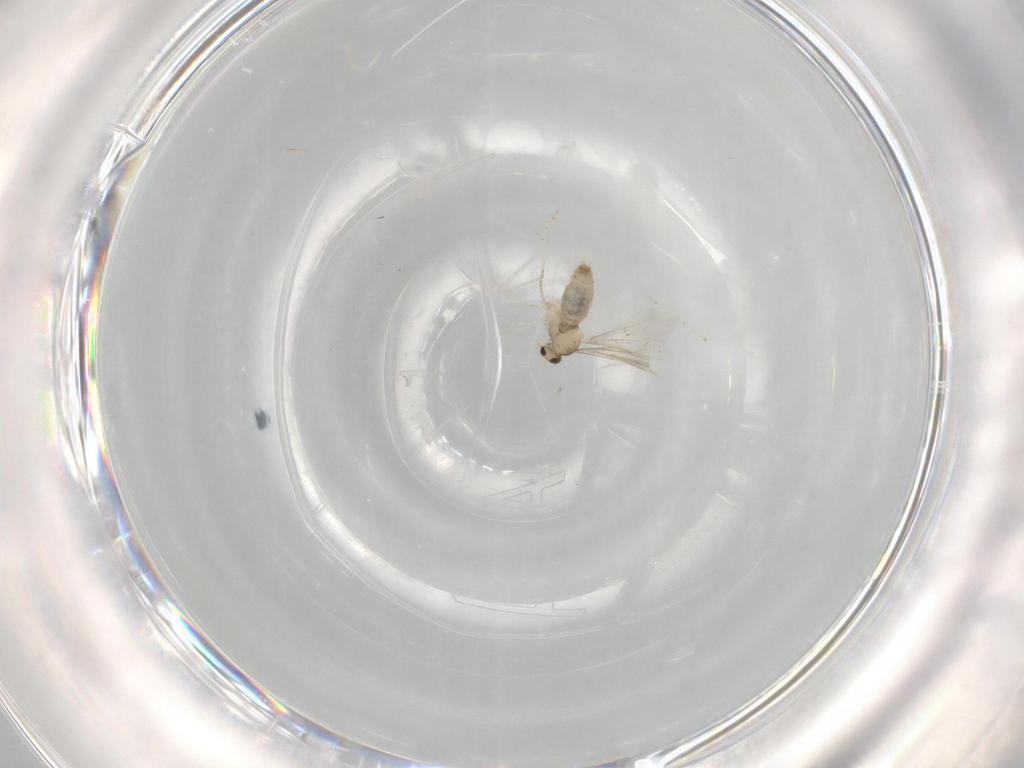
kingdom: Animalia
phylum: Arthropoda
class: Insecta
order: Diptera
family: Cecidomyiidae
